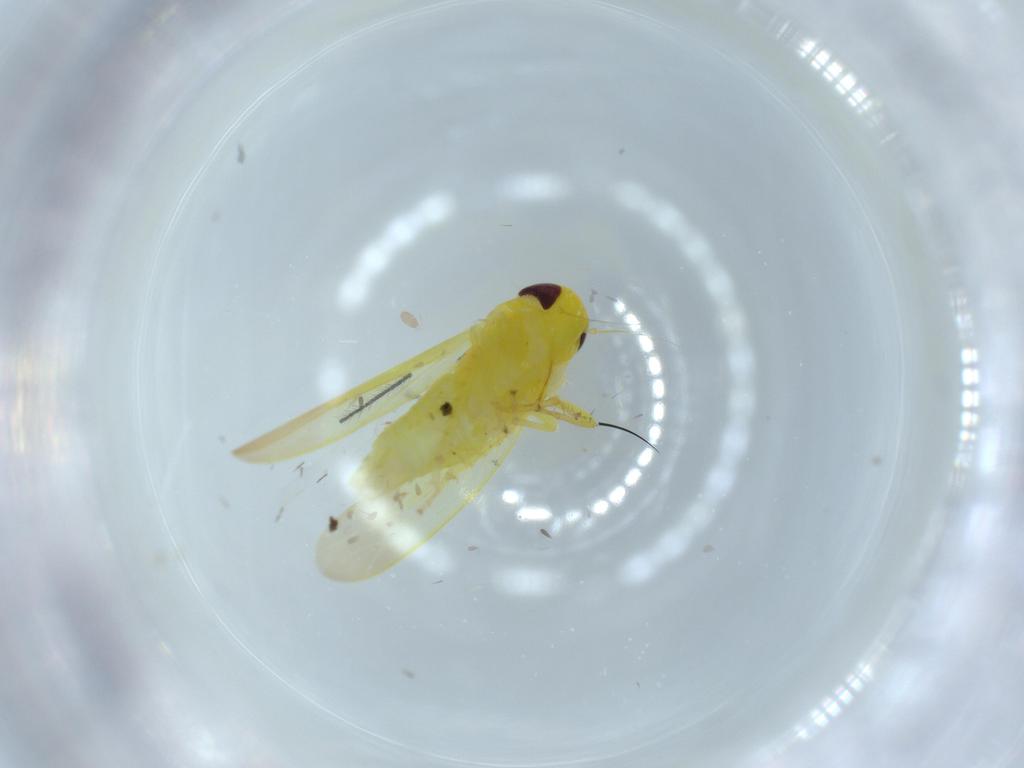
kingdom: Animalia
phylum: Arthropoda
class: Insecta
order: Hemiptera
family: Cicadellidae
